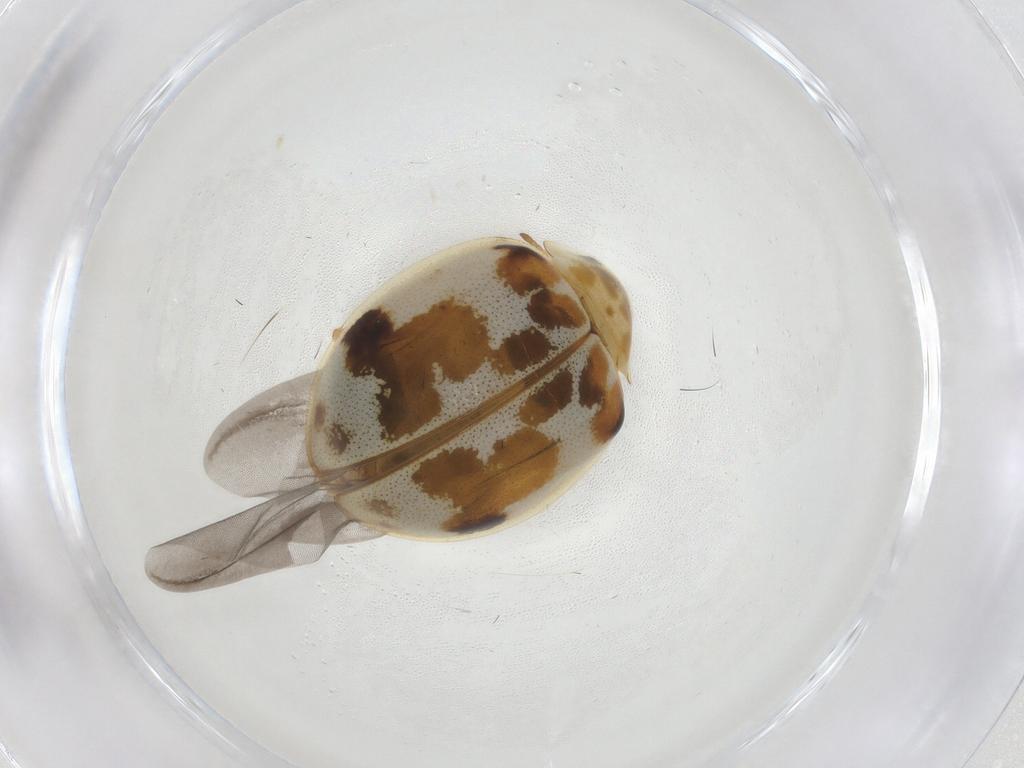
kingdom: Animalia
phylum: Arthropoda
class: Insecta
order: Coleoptera
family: Coccinellidae
